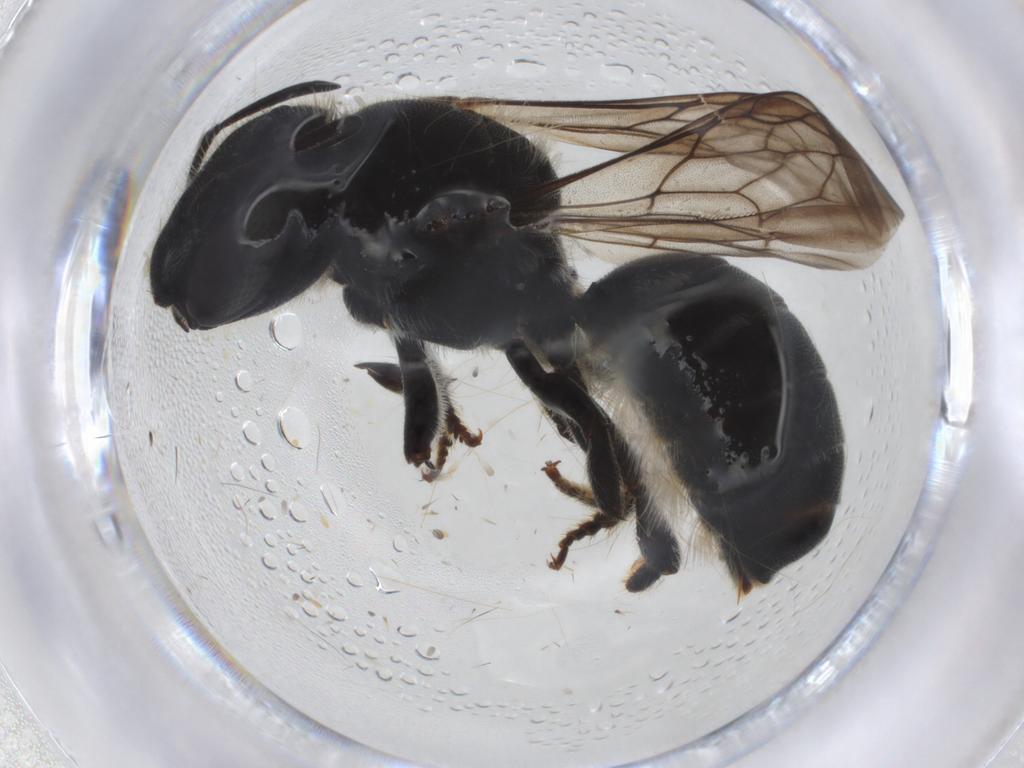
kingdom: Animalia
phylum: Arthropoda
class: Insecta
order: Hymenoptera
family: Megachilidae
